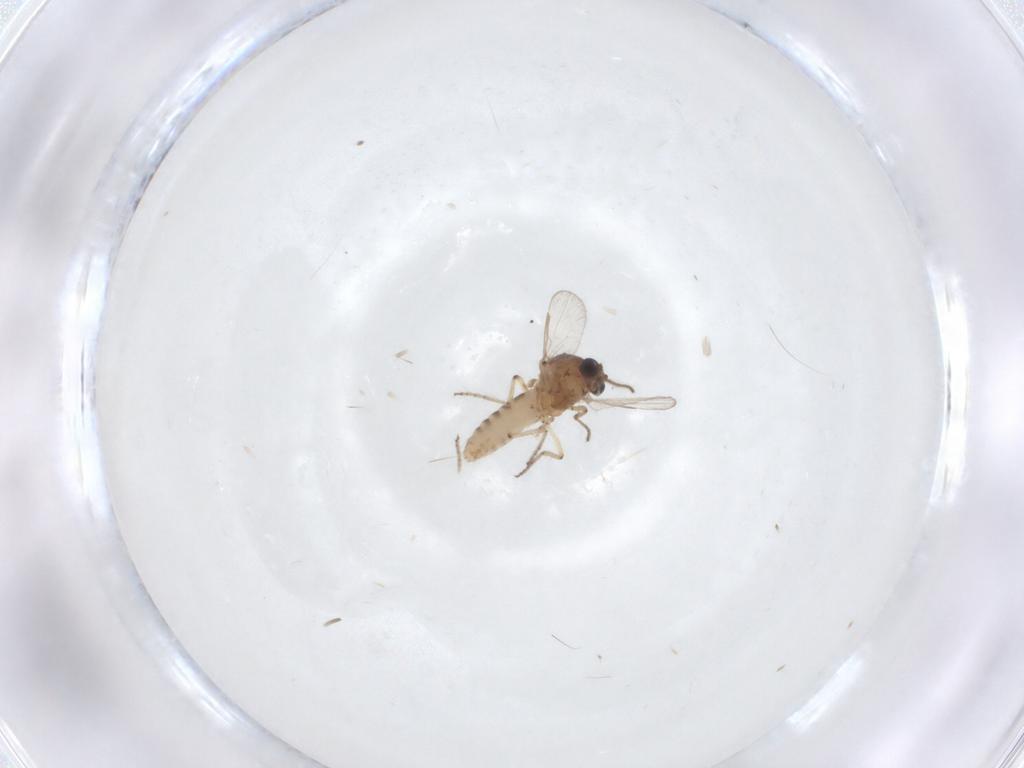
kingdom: Animalia
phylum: Arthropoda
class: Insecta
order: Diptera
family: Ceratopogonidae
